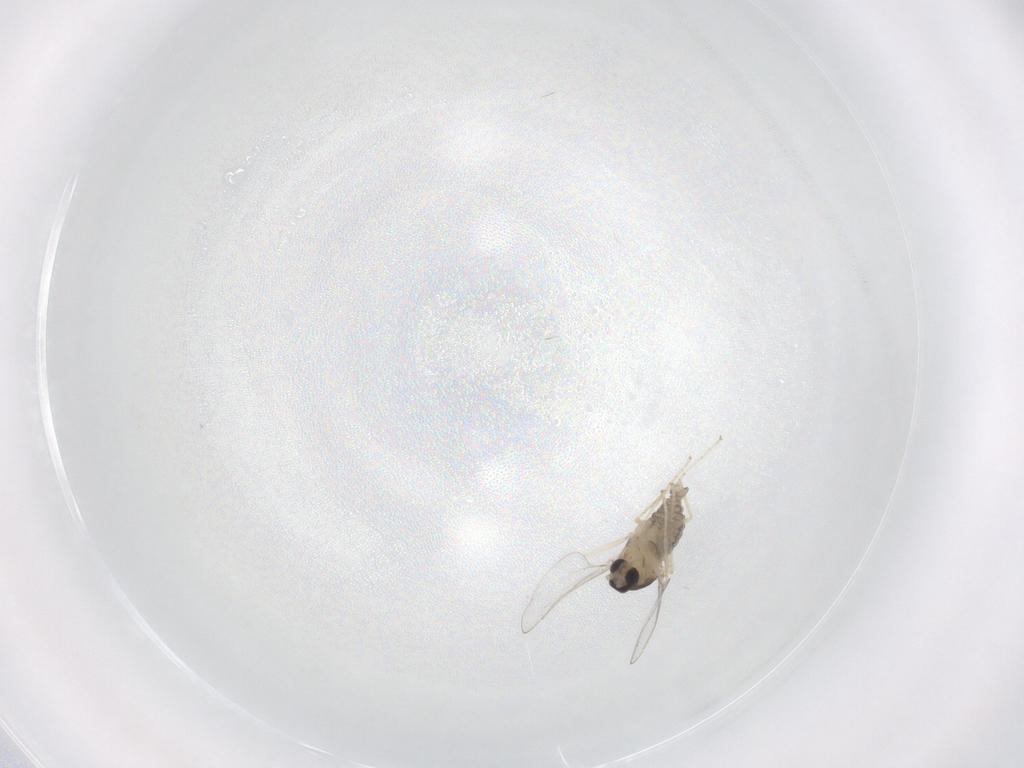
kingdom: Animalia
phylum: Arthropoda
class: Insecta
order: Diptera
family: Cecidomyiidae
